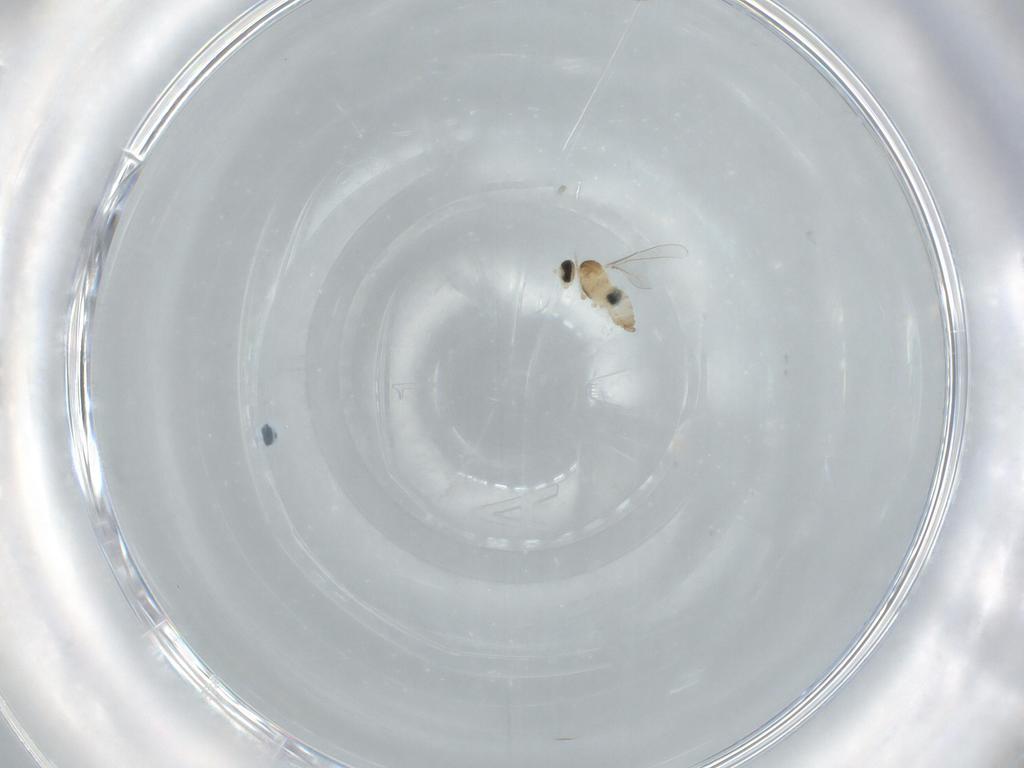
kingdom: Animalia
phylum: Arthropoda
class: Insecta
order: Diptera
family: Cecidomyiidae
